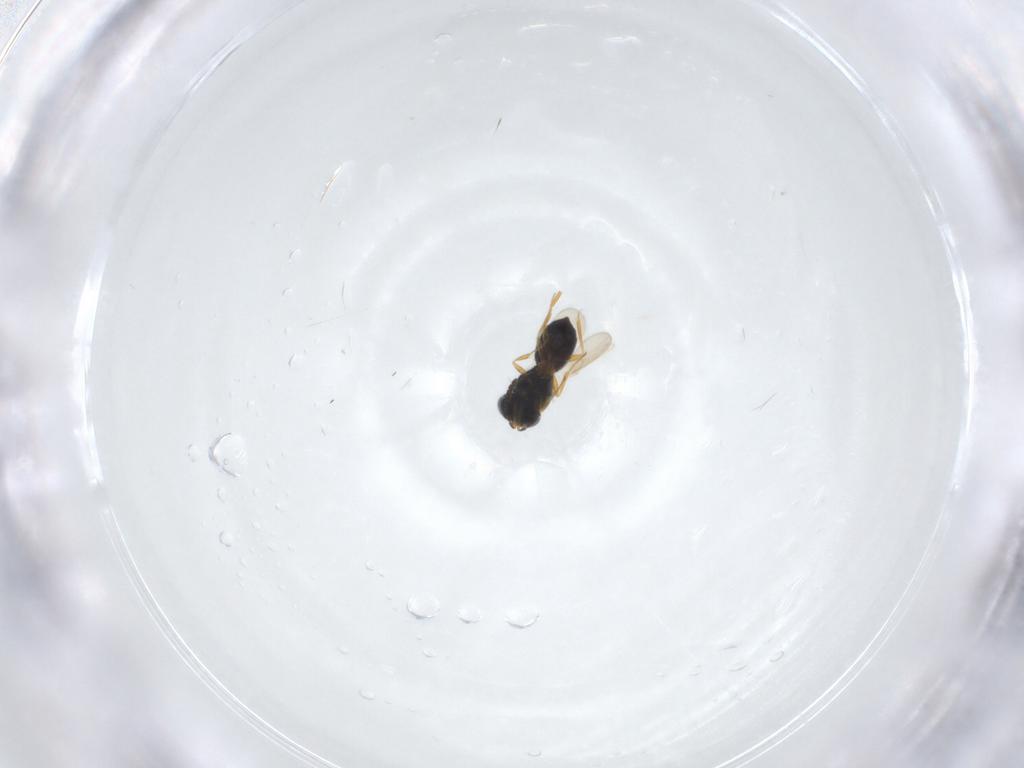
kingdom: Animalia
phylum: Arthropoda
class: Insecta
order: Hymenoptera
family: Scelionidae
